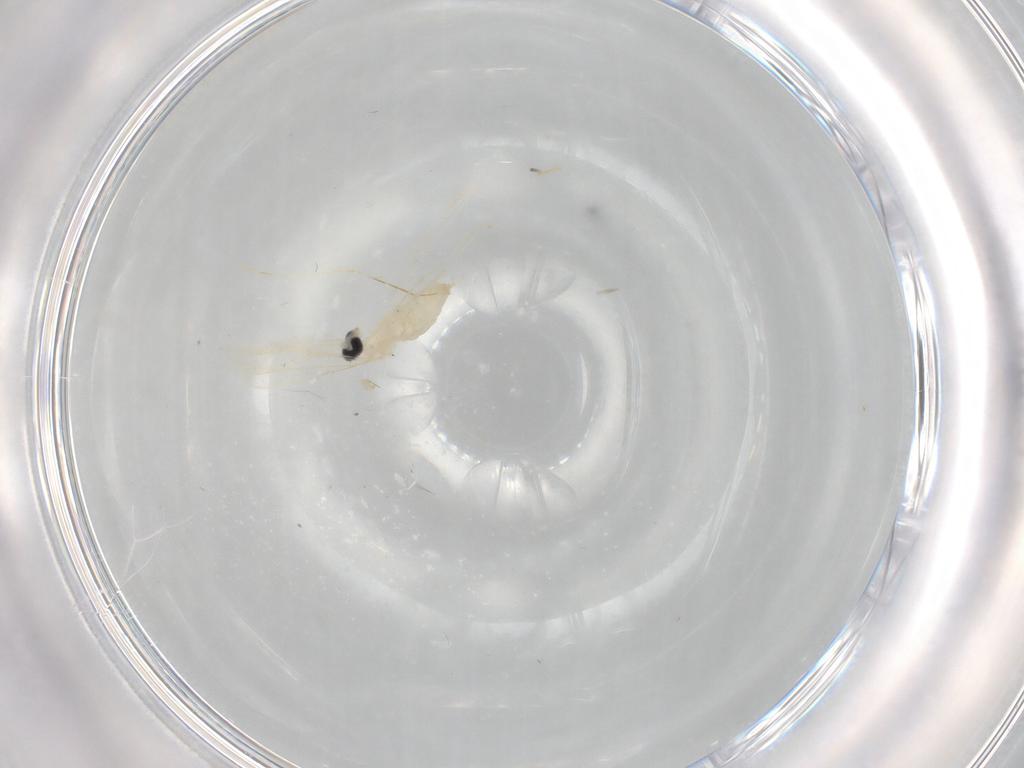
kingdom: Animalia
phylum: Arthropoda
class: Insecta
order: Diptera
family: Cecidomyiidae
